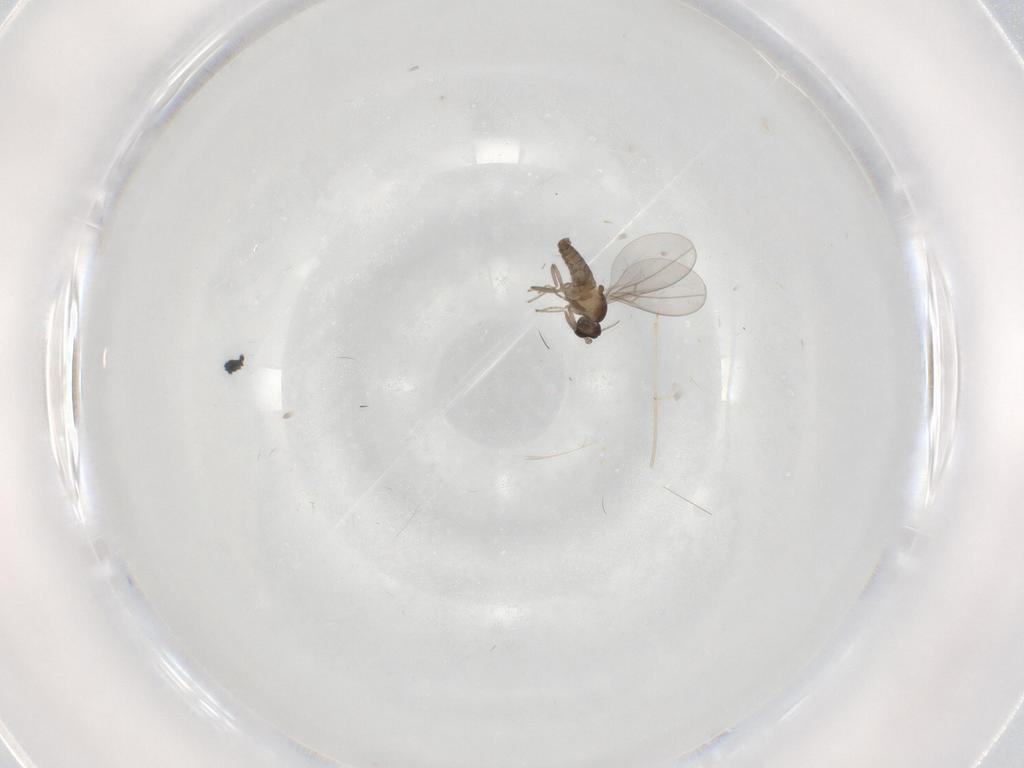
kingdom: Animalia
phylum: Arthropoda
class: Insecta
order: Diptera
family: Cecidomyiidae
